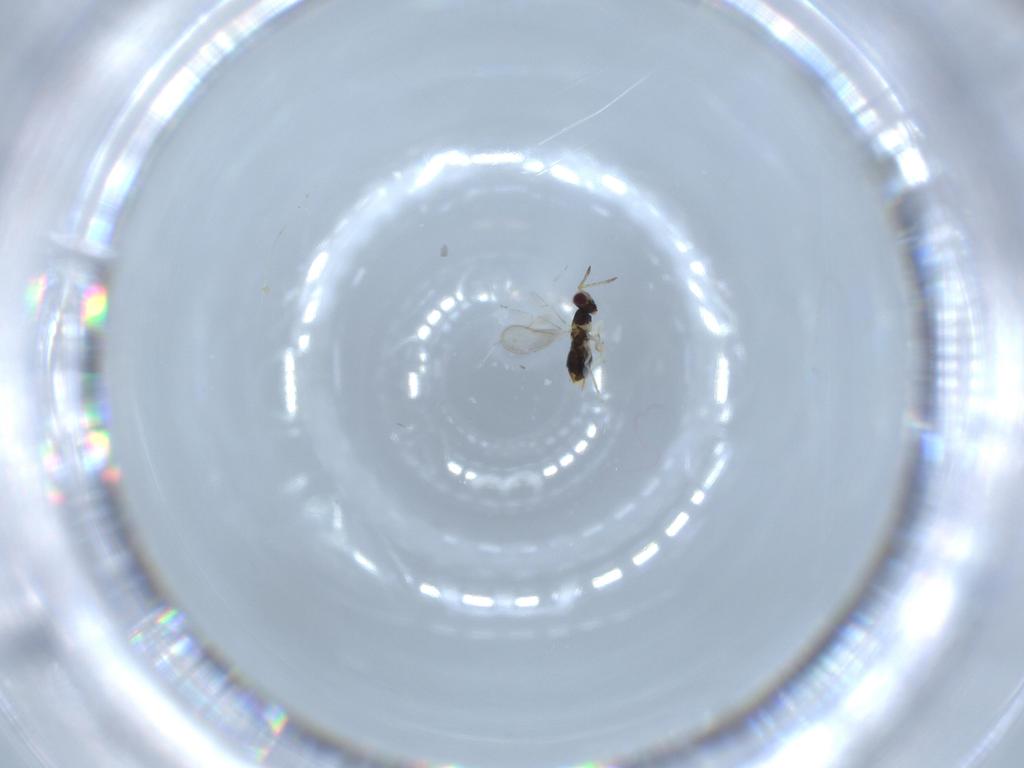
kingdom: Animalia
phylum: Arthropoda
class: Insecta
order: Hymenoptera
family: Aphelinidae
